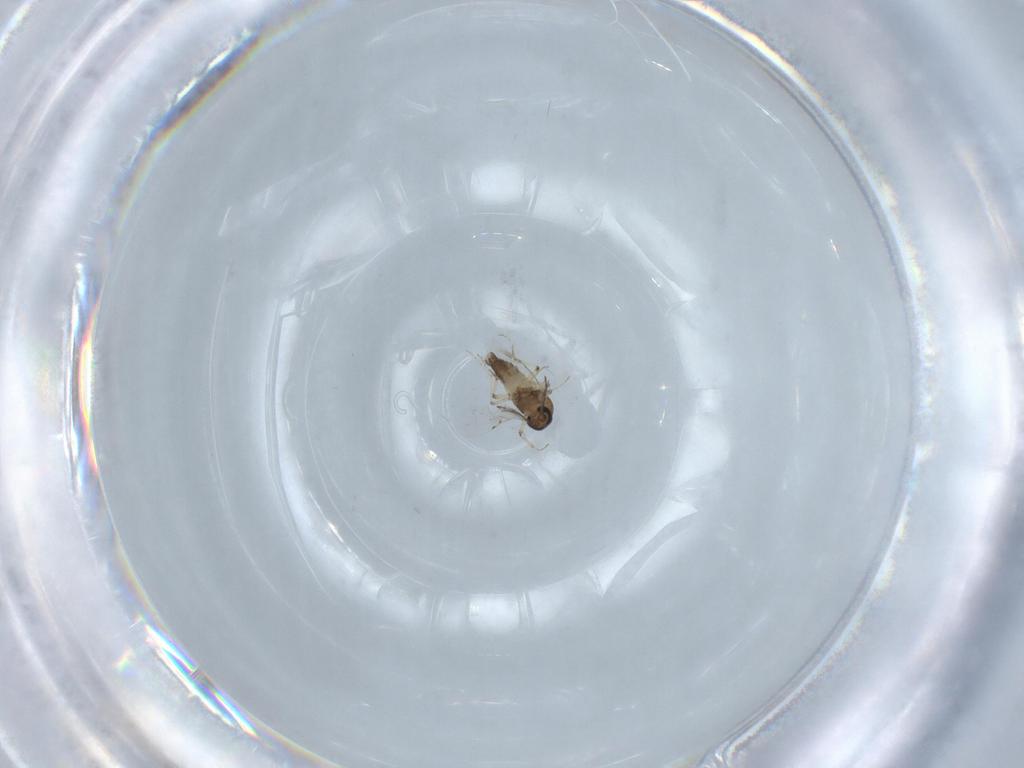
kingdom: Animalia
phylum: Arthropoda
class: Insecta
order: Diptera
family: Ceratopogonidae
